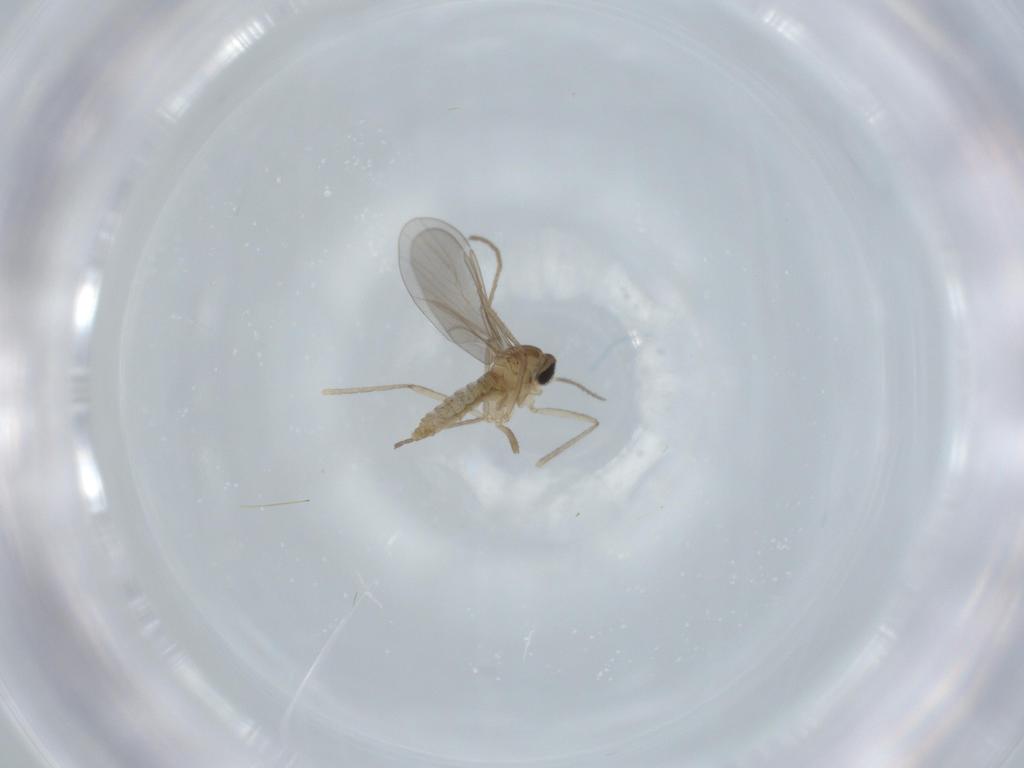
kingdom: Animalia
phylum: Arthropoda
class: Insecta
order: Diptera
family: Cecidomyiidae
